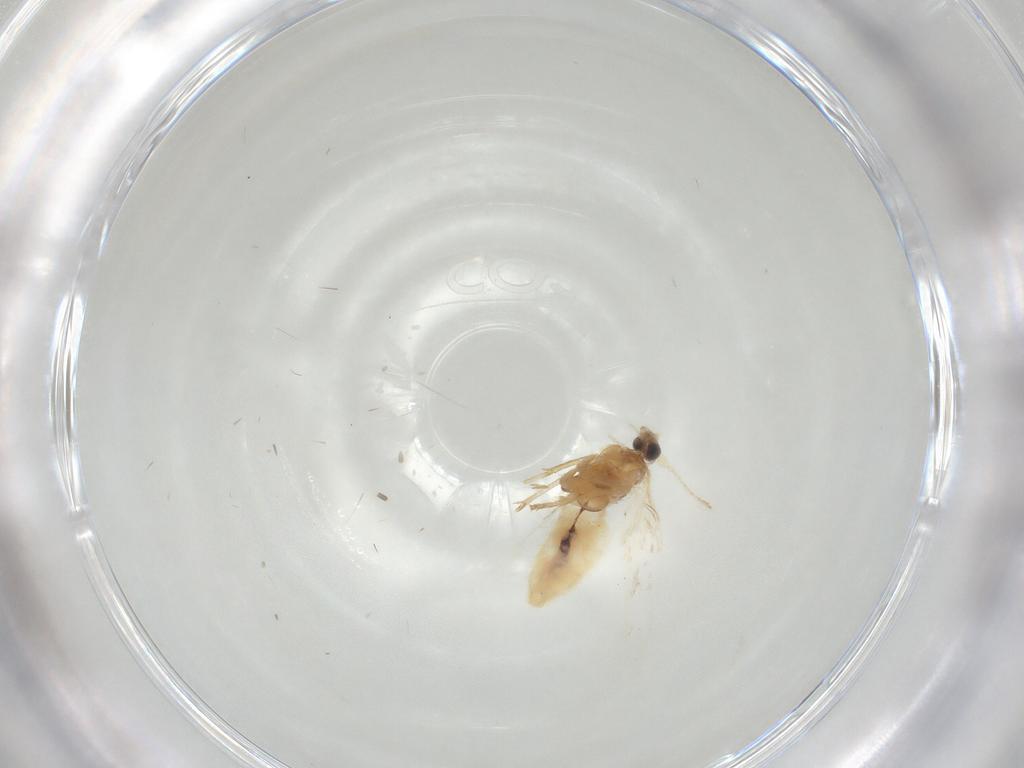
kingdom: Animalia
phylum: Arthropoda
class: Insecta
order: Lepidoptera
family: Nepticulidae
